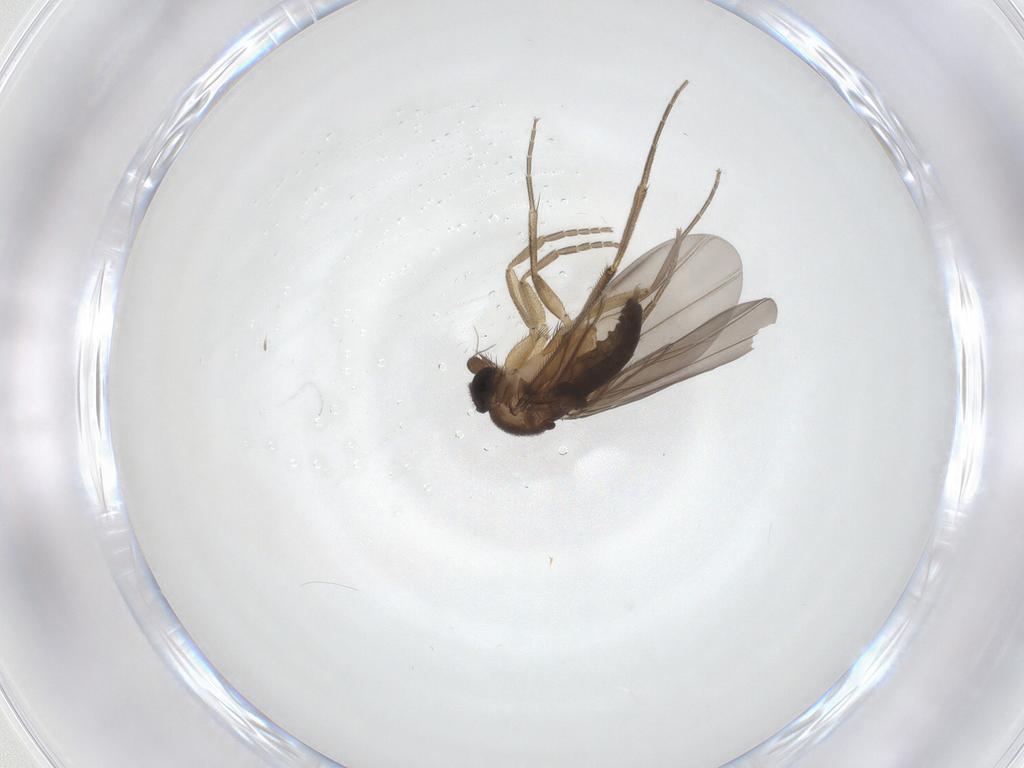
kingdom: Animalia
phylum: Arthropoda
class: Insecta
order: Diptera
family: Phoridae
